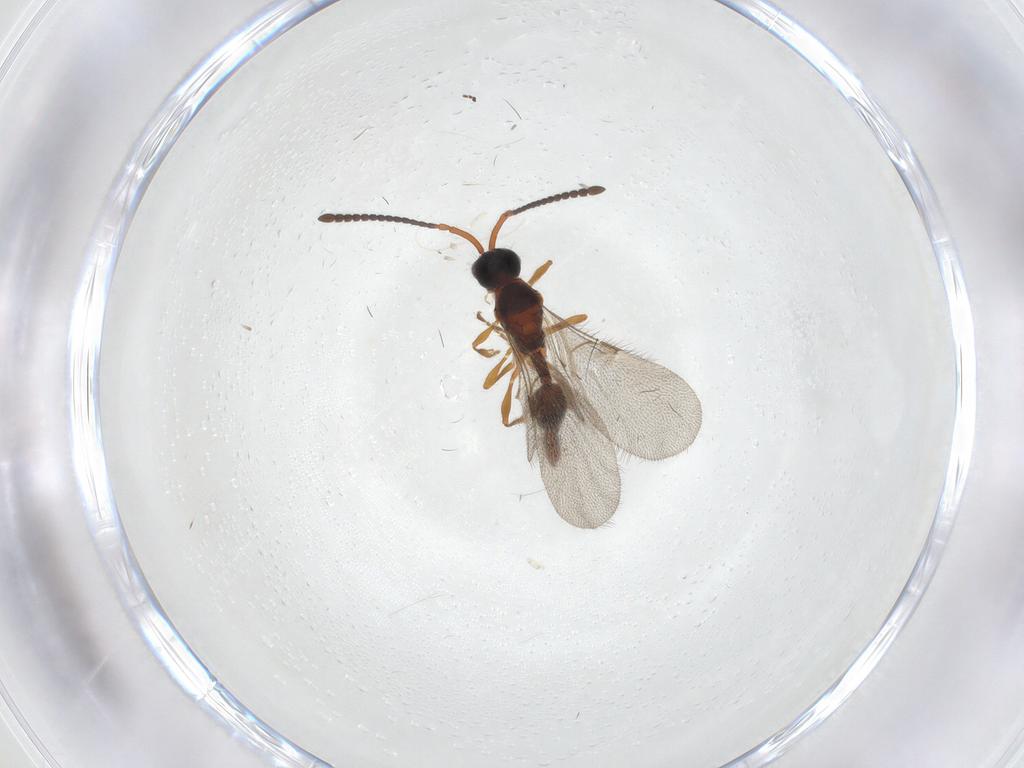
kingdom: Animalia
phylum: Arthropoda
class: Insecta
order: Hymenoptera
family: Diapriidae
